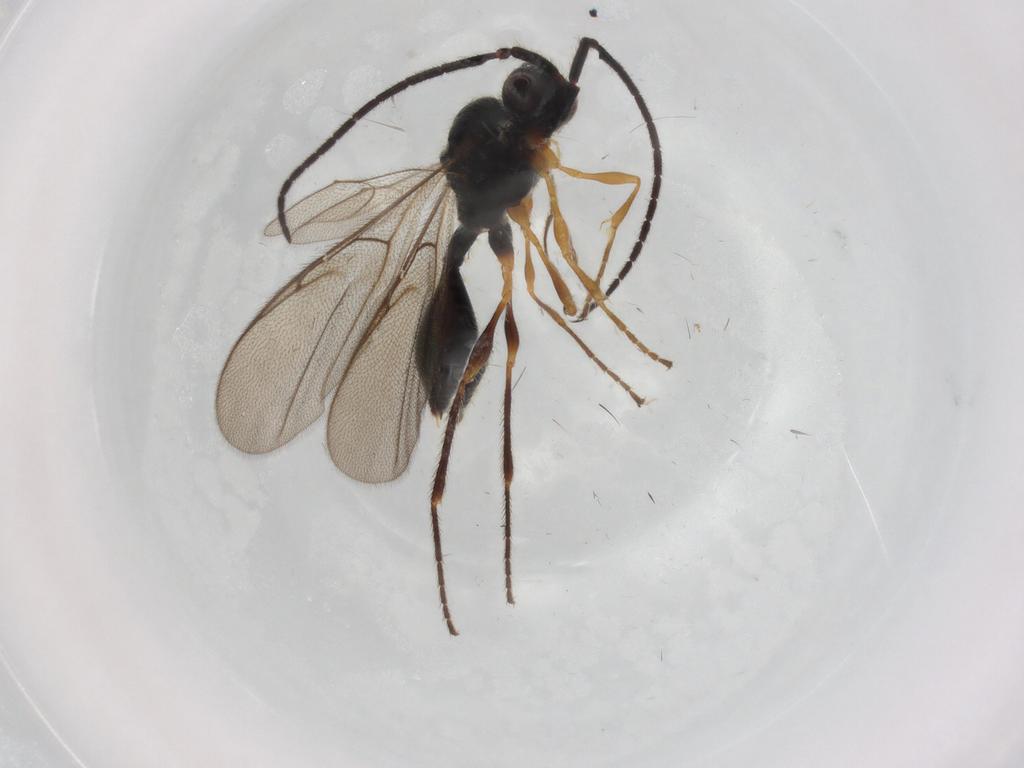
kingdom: Animalia
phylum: Arthropoda
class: Insecta
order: Hymenoptera
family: Diapriidae
